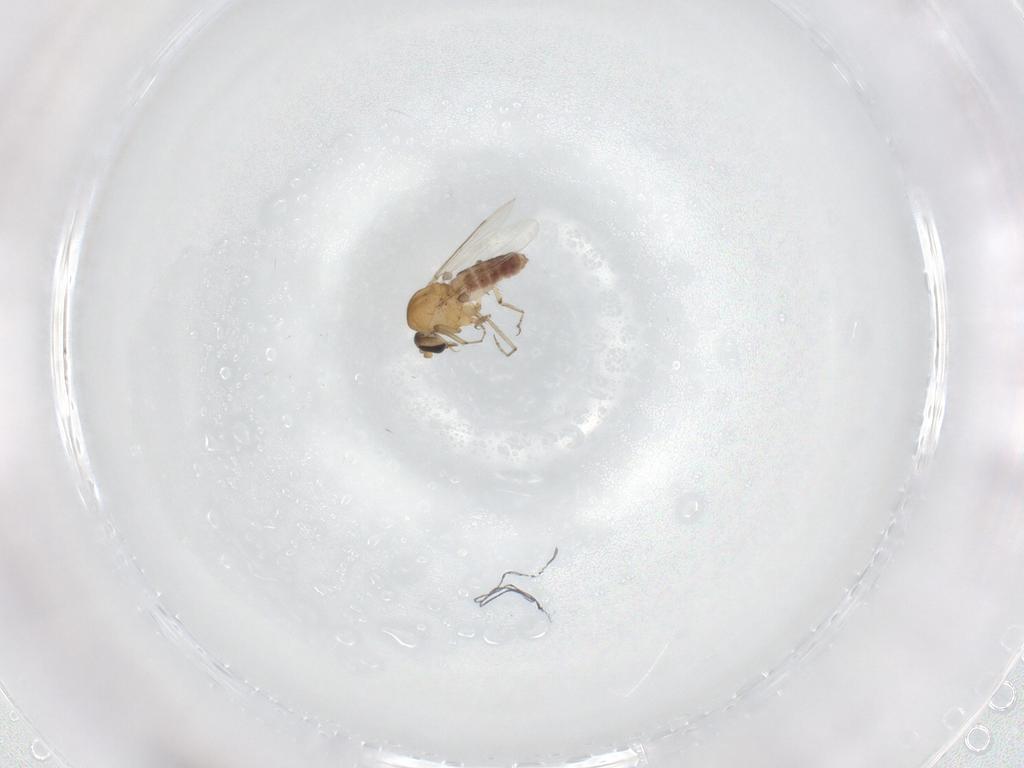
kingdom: Animalia
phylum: Arthropoda
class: Insecta
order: Diptera
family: Ceratopogonidae
